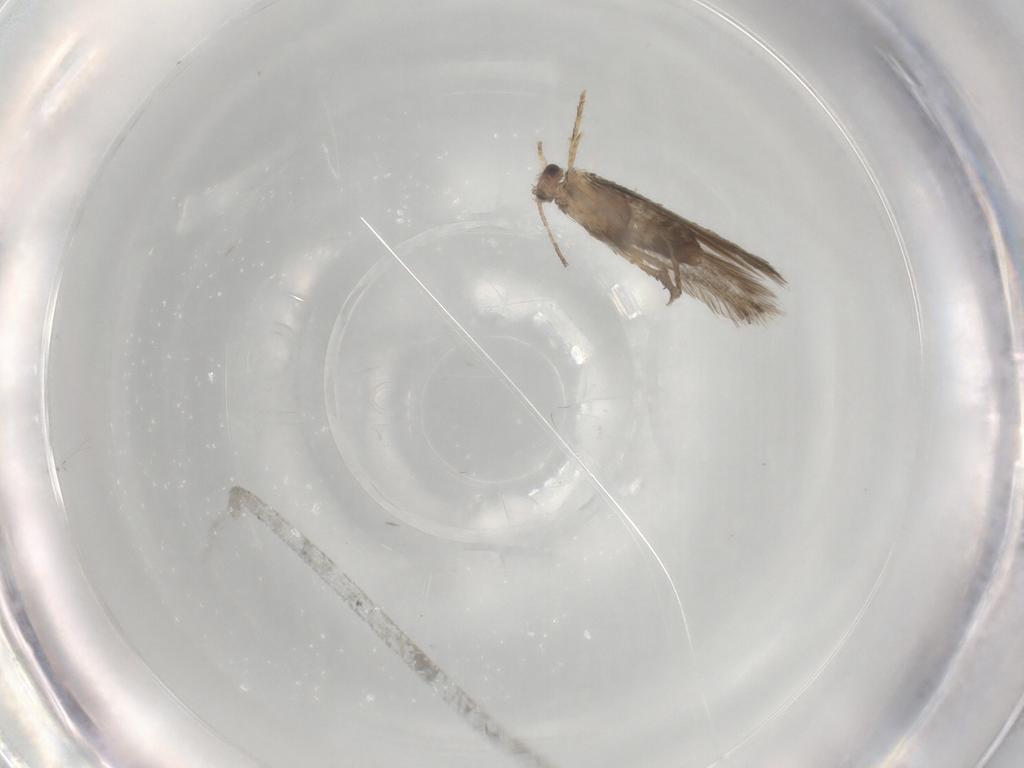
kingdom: Animalia
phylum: Arthropoda
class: Insecta
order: Lepidoptera
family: Nepticulidae
